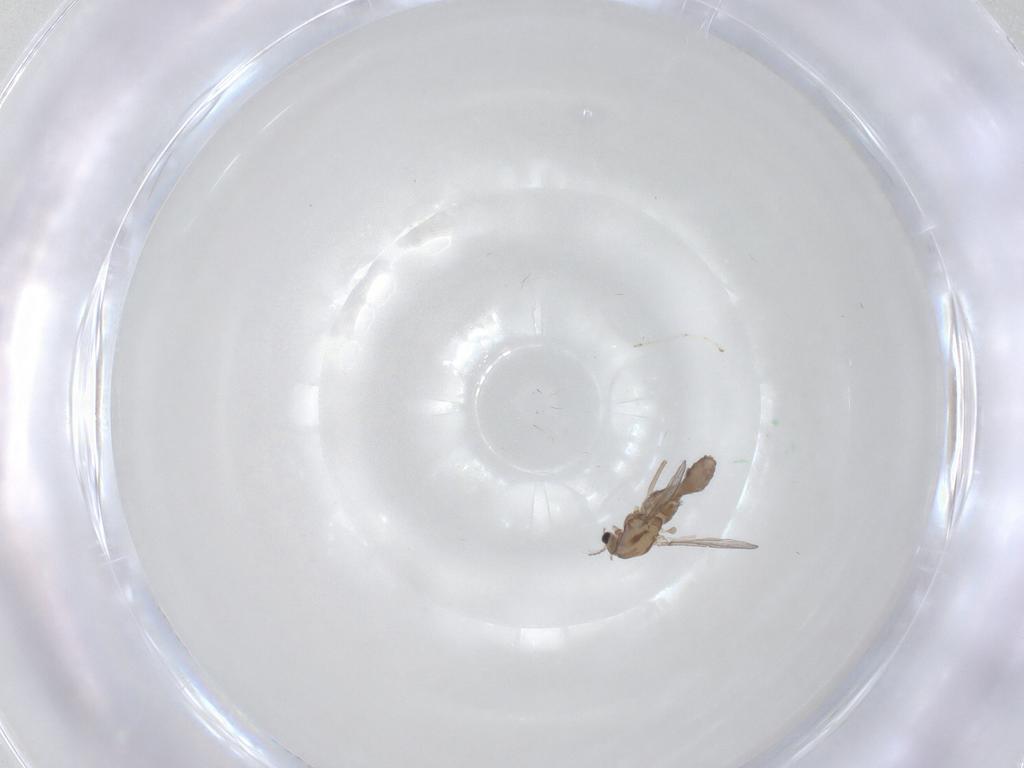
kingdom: Animalia
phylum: Arthropoda
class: Insecta
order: Diptera
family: Chironomidae
